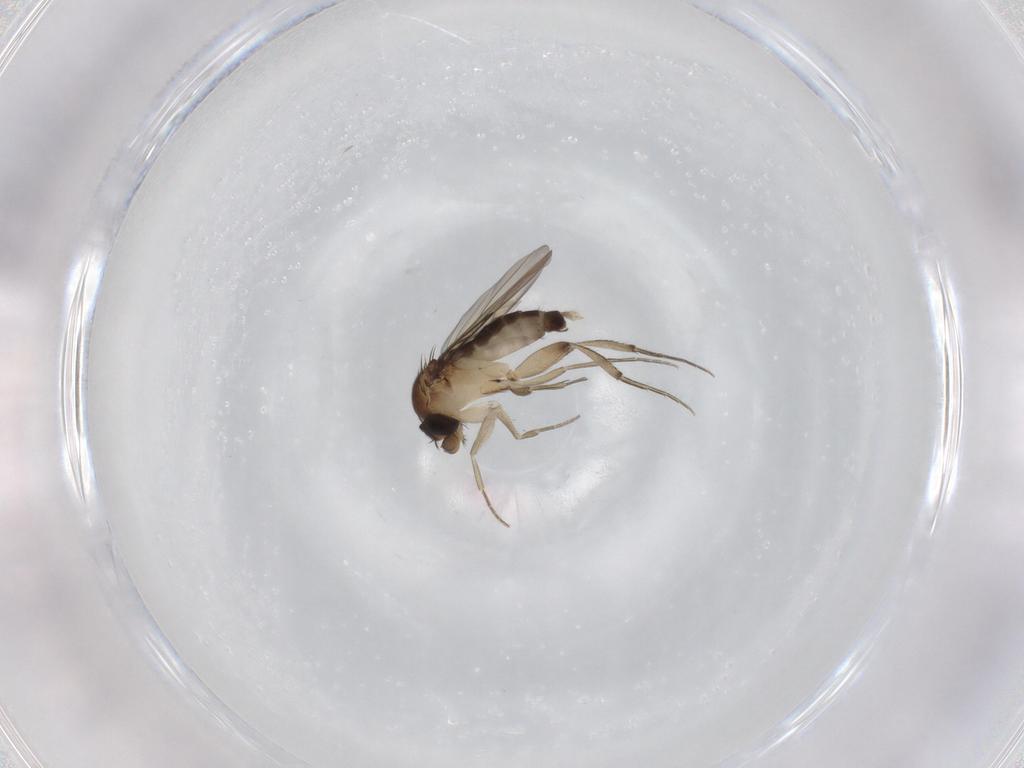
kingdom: Animalia
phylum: Arthropoda
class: Insecta
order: Diptera
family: Phoridae
